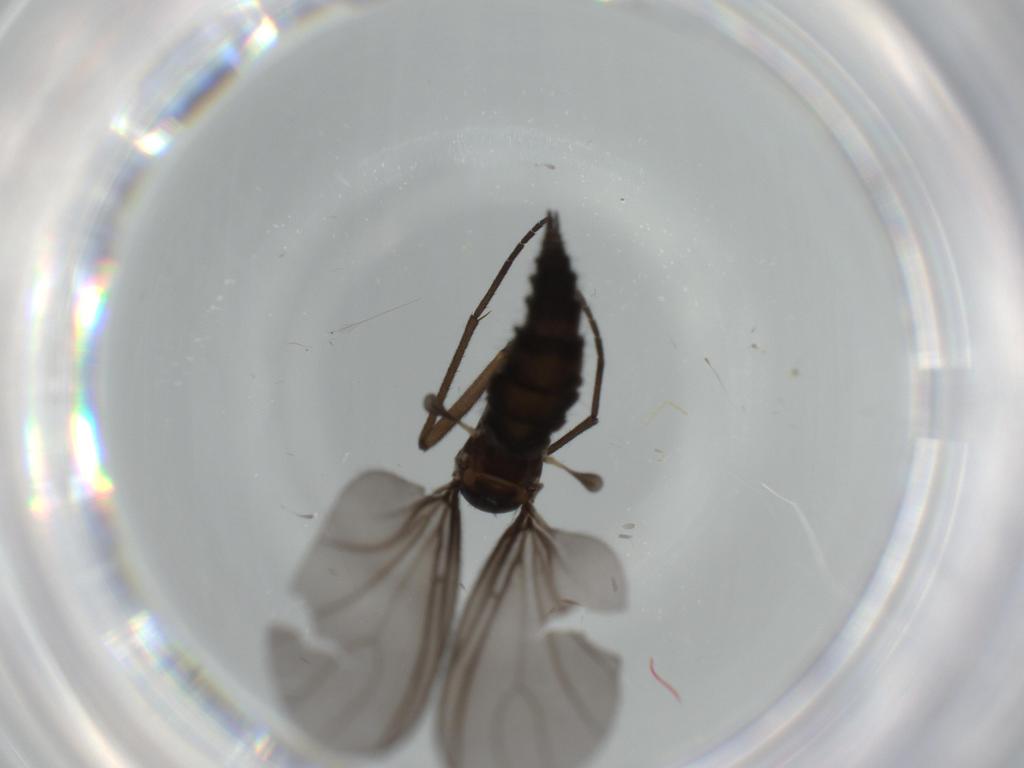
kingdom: Animalia
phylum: Arthropoda
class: Insecta
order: Diptera
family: Sciaridae
